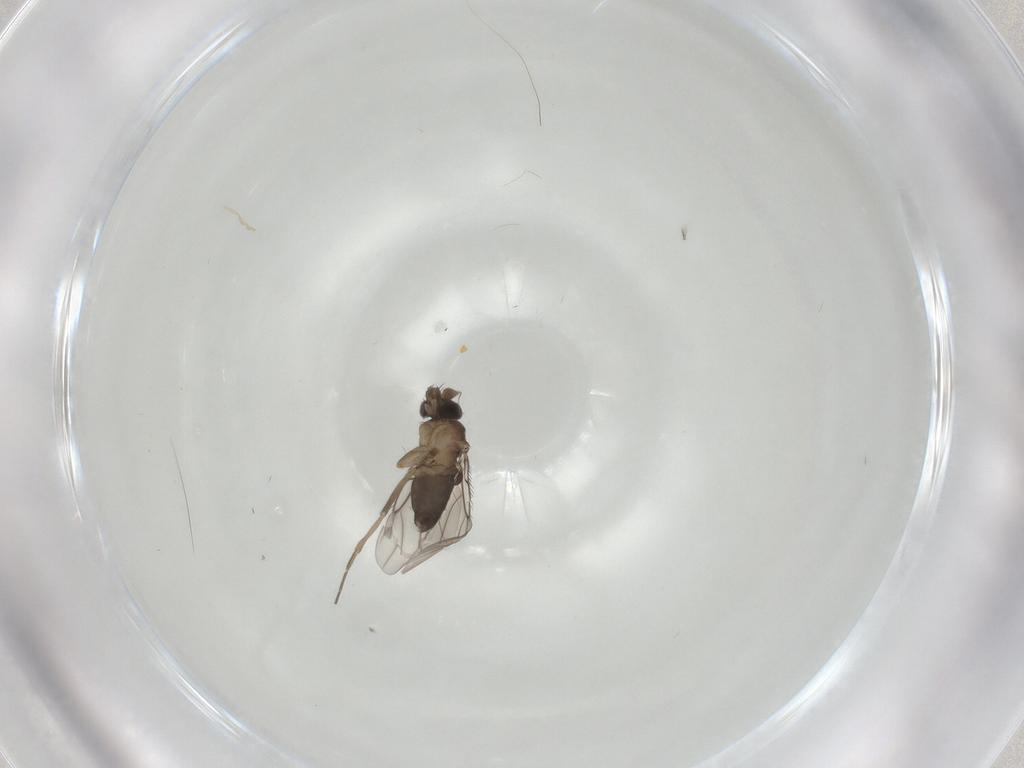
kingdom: Animalia
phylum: Arthropoda
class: Insecta
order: Diptera
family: Phoridae
